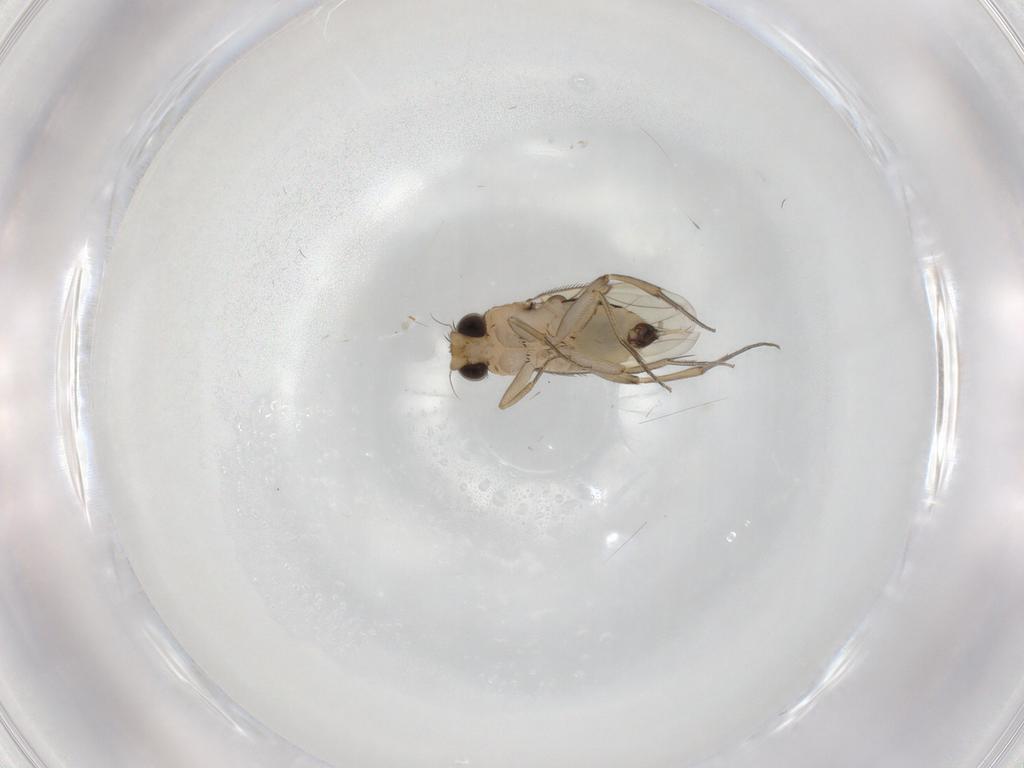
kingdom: Animalia
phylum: Arthropoda
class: Insecta
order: Diptera
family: Phoridae
